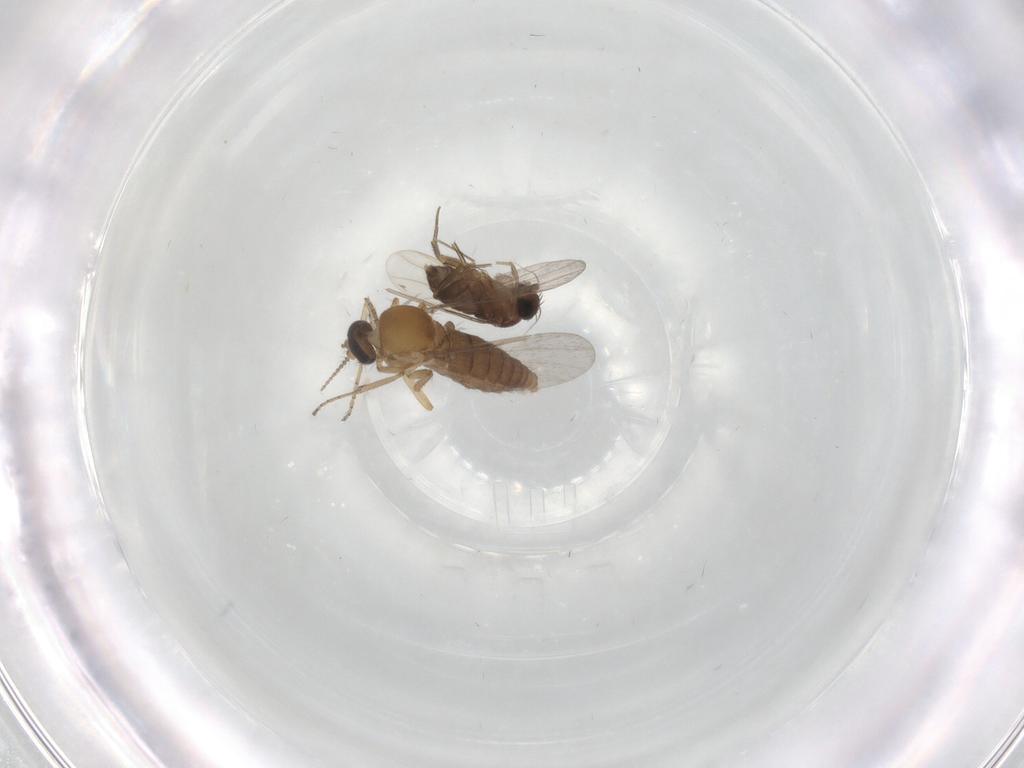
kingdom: Animalia
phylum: Arthropoda
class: Insecta
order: Diptera
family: Dolichopodidae
